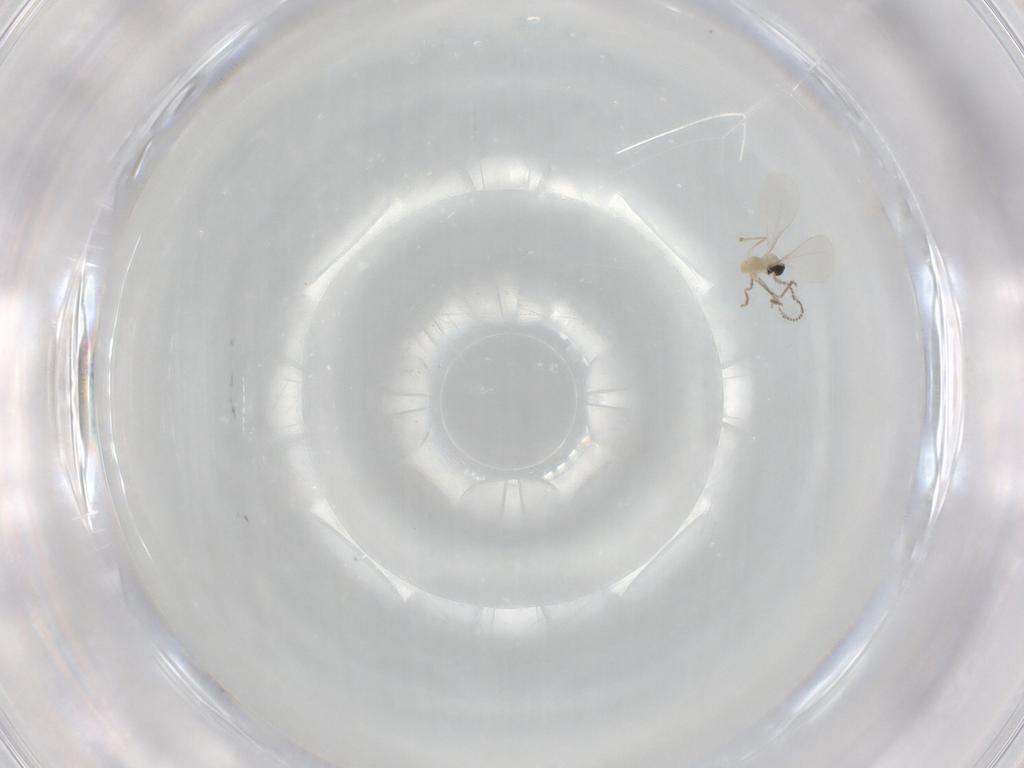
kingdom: Animalia
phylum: Arthropoda
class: Insecta
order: Diptera
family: Cecidomyiidae
